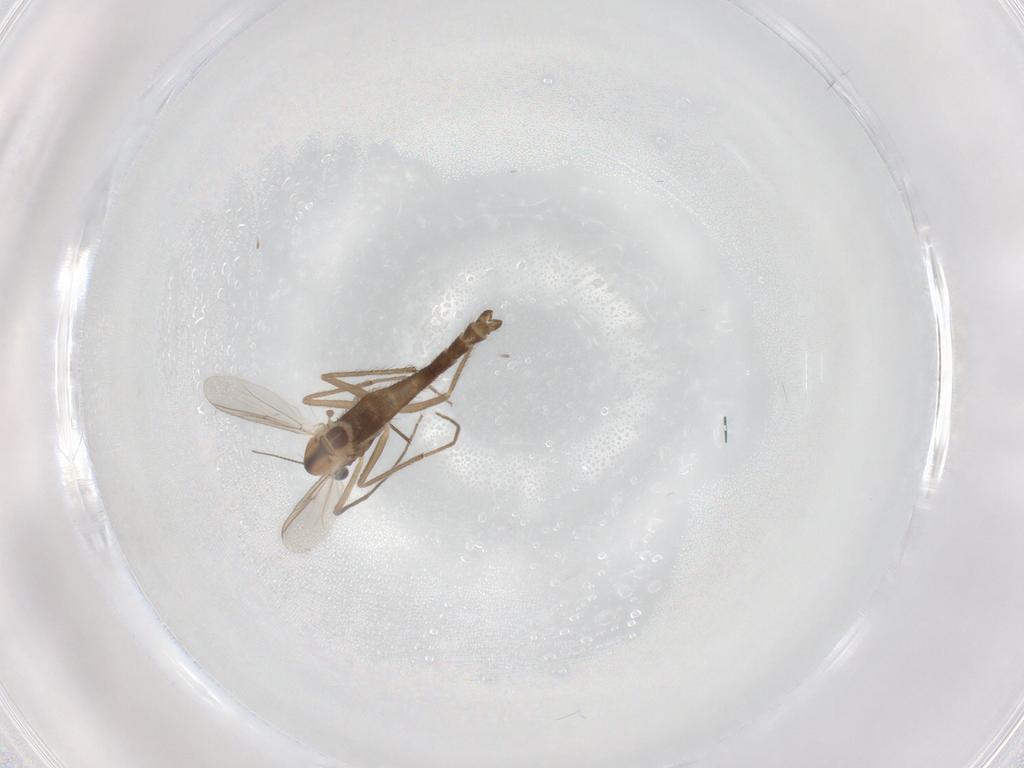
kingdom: Animalia
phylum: Arthropoda
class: Insecta
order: Diptera
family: Chironomidae
